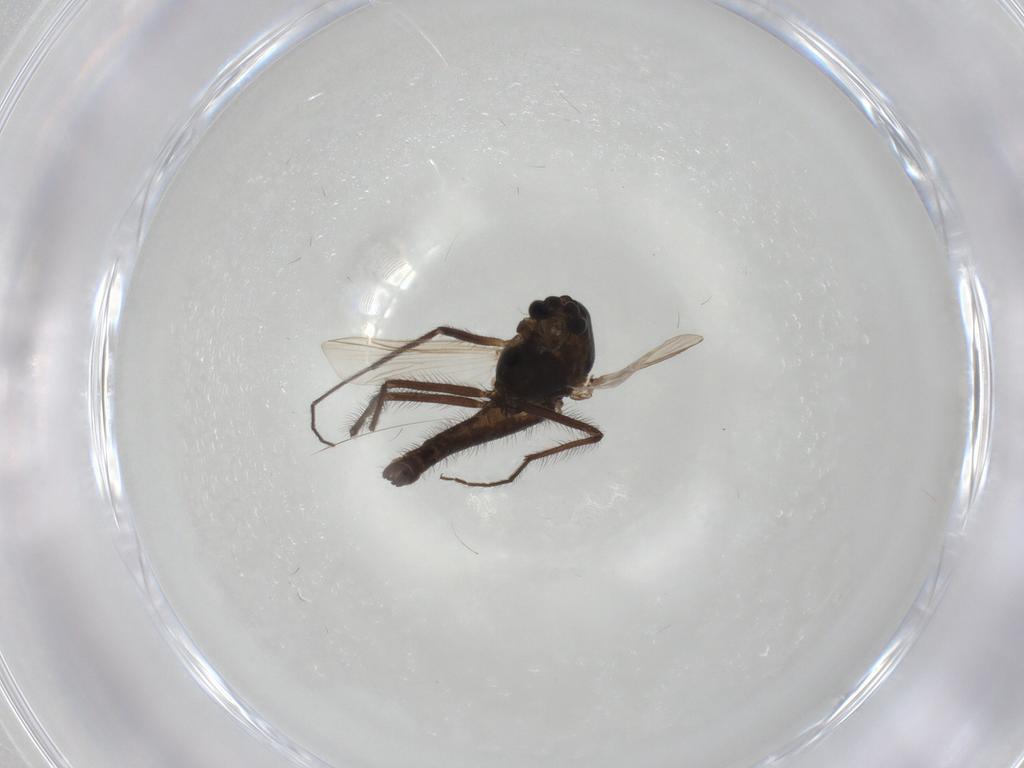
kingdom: Animalia
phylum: Arthropoda
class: Insecta
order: Diptera
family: Chironomidae
